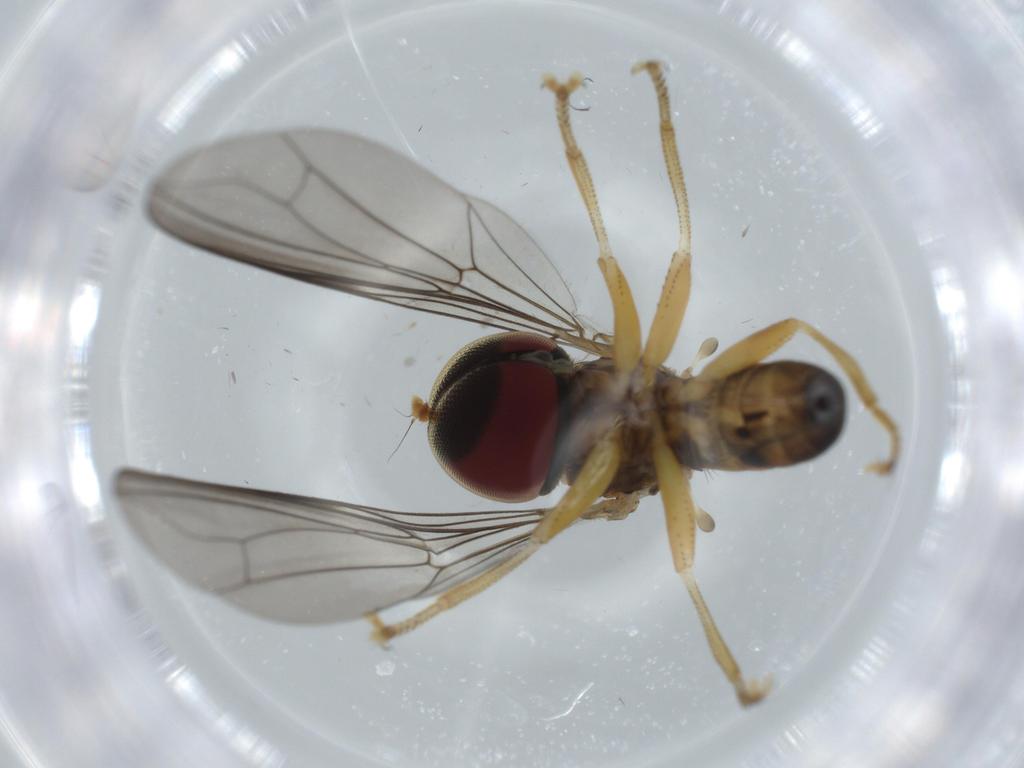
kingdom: Animalia
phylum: Arthropoda
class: Insecta
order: Diptera
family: Pipunculidae
